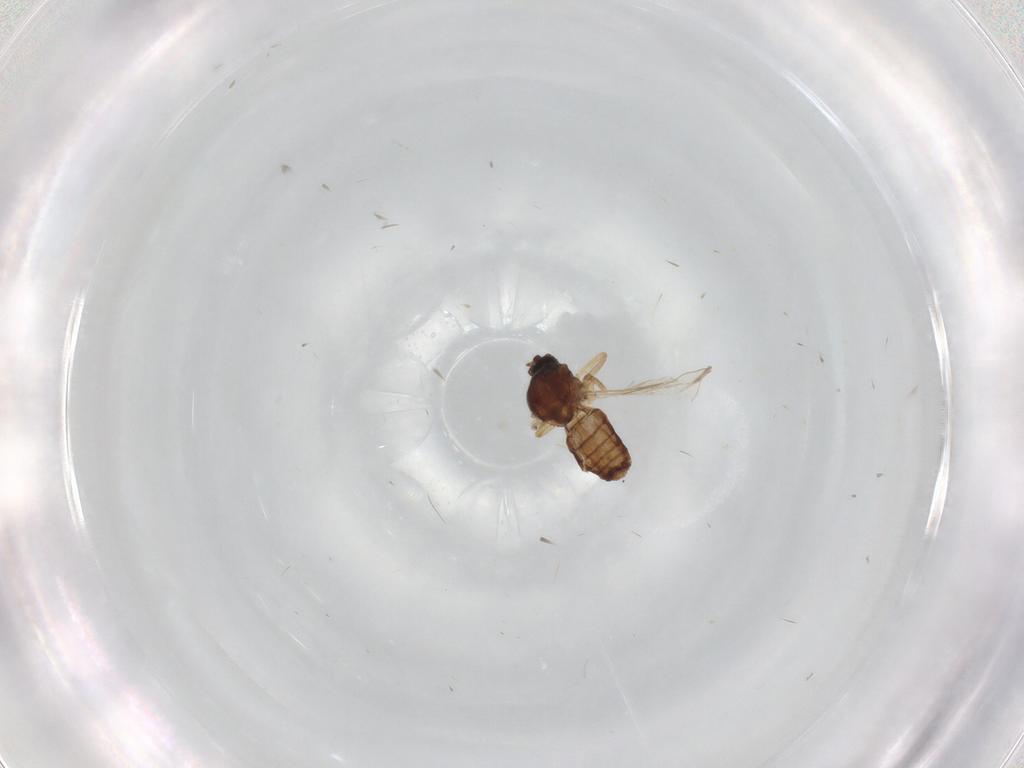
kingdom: Animalia
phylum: Arthropoda
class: Insecta
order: Diptera
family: Ceratopogonidae
